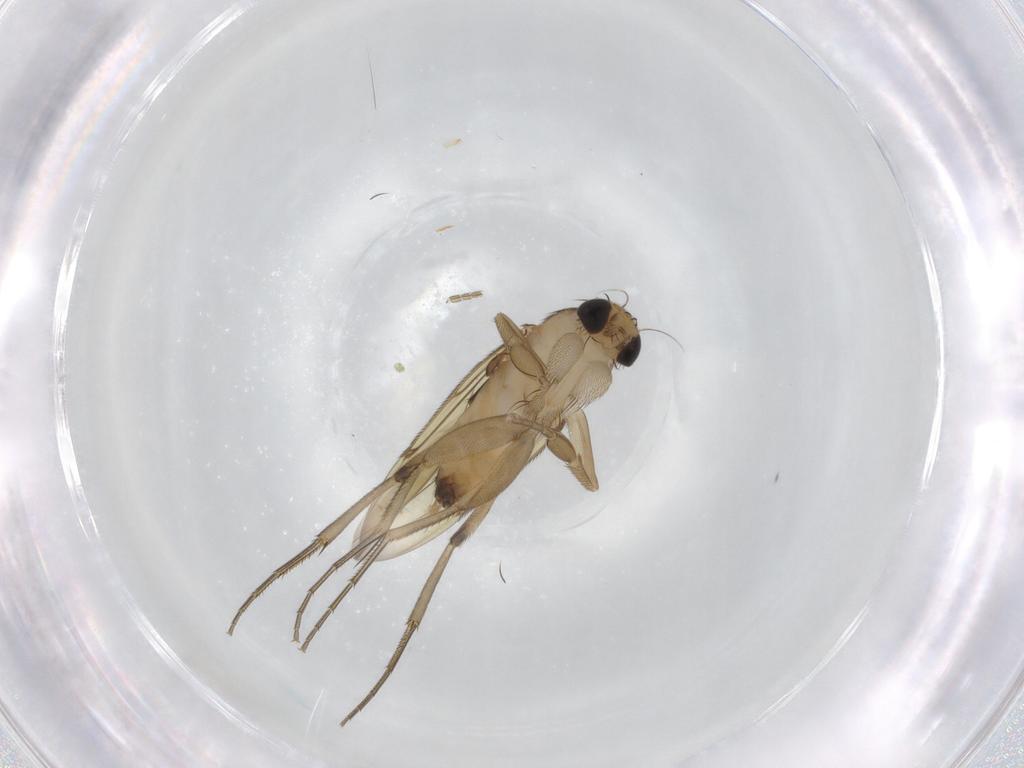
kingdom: Animalia
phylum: Arthropoda
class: Insecta
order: Diptera
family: Phoridae
